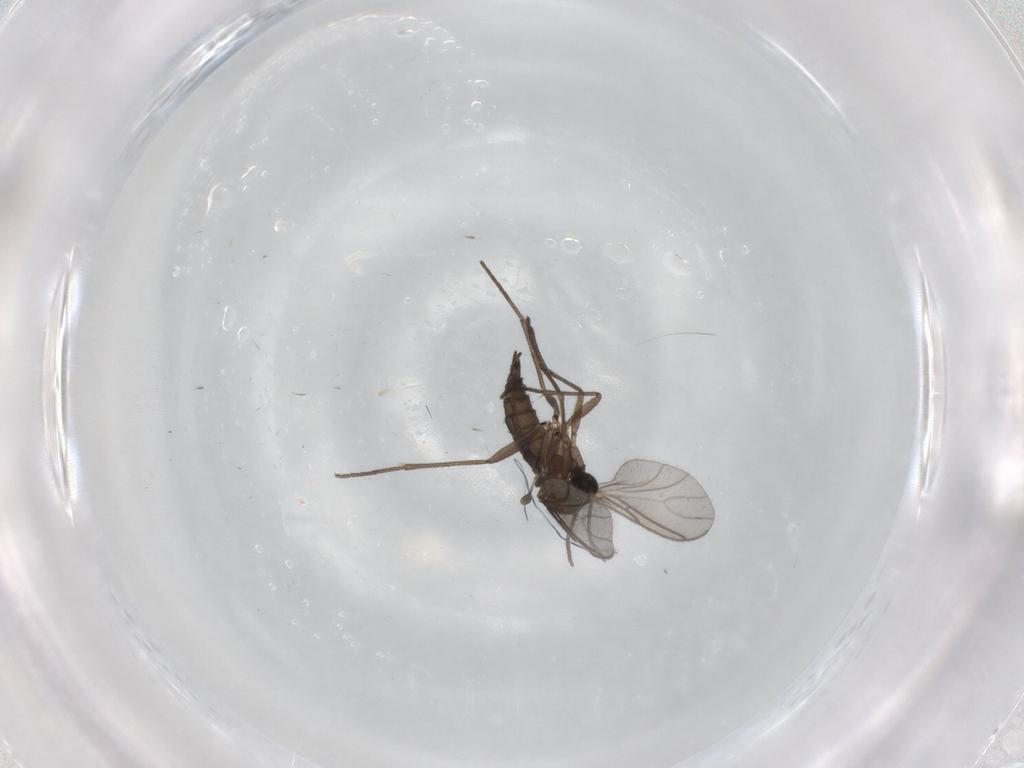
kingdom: Animalia
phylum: Arthropoda
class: Insecta
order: Diptera
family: Sciaridae
